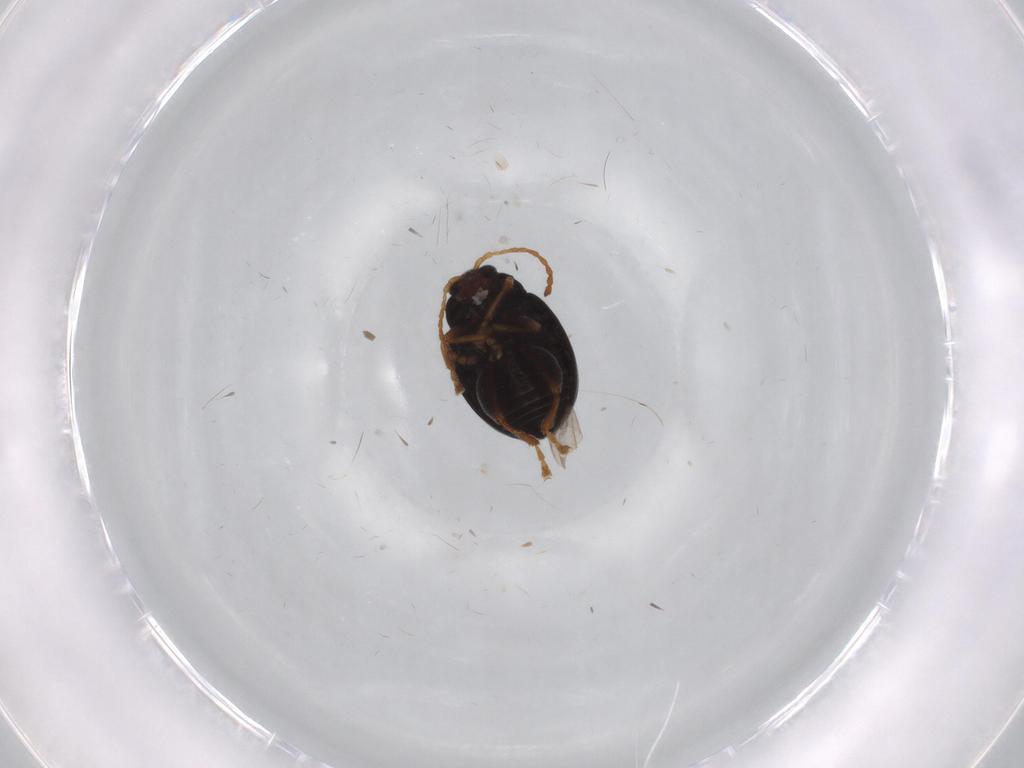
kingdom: Animalia
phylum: Arthropoda
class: Insecta
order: Coleoptera
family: Chrysomelidae
